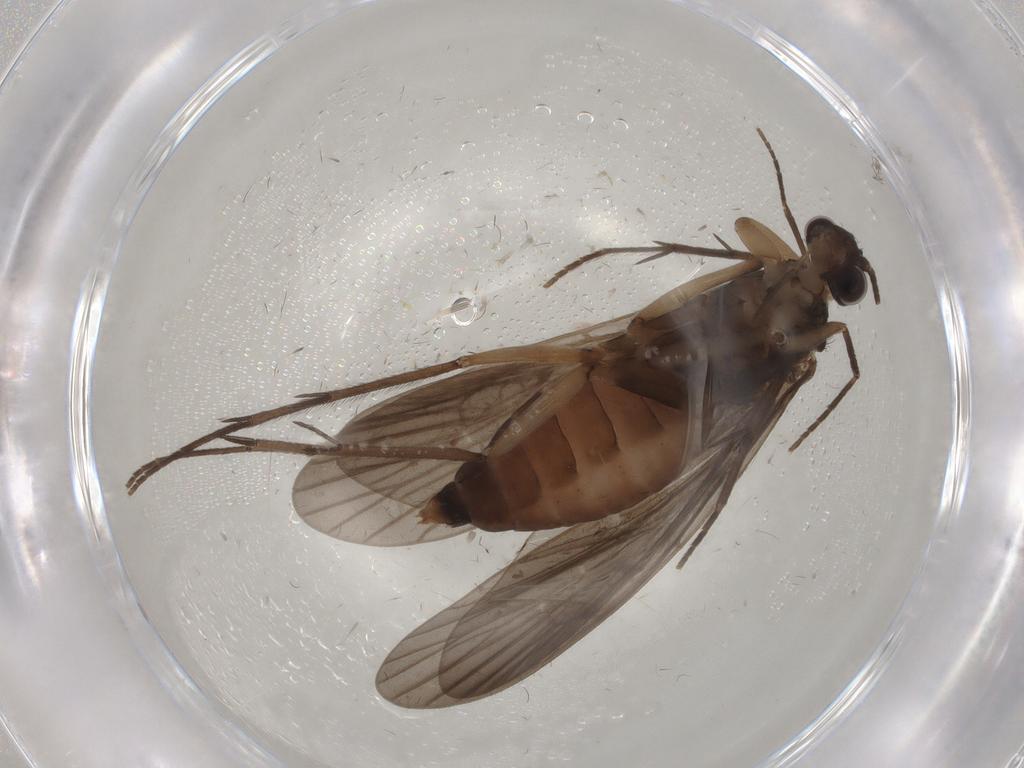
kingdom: Animalia
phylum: Arthropoda
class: Insecta
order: Trichoptera
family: Philopotamidae
